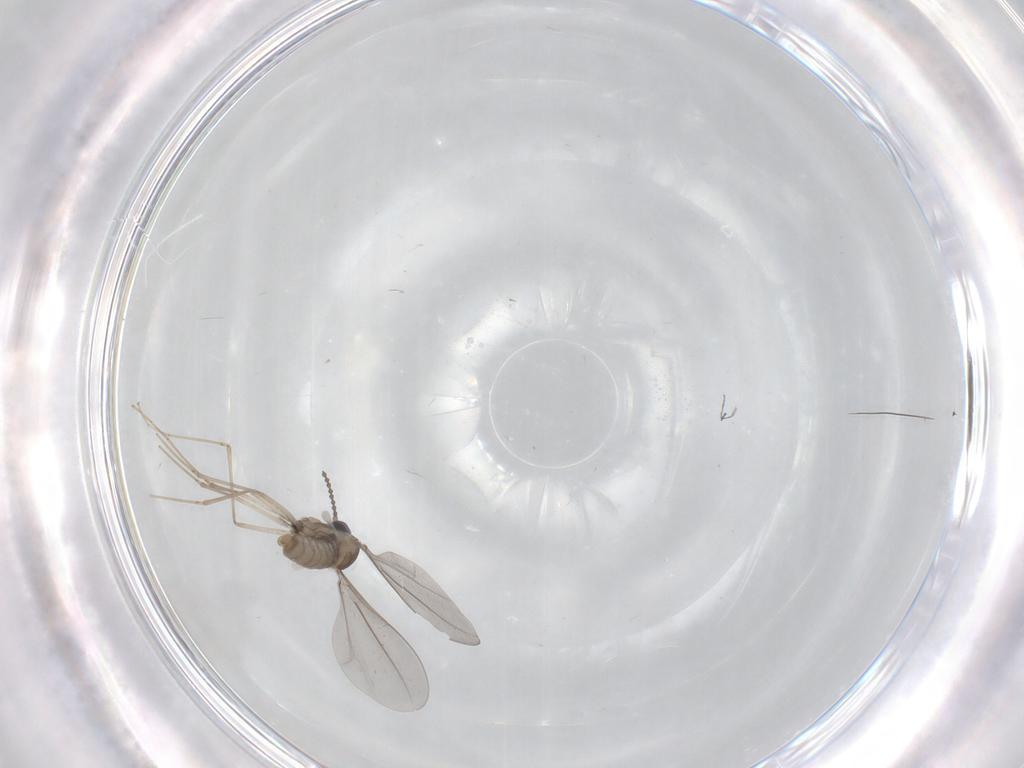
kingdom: Animalia
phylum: Arthropoda
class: Insecta
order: Diptera
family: Cecidomyiidae
